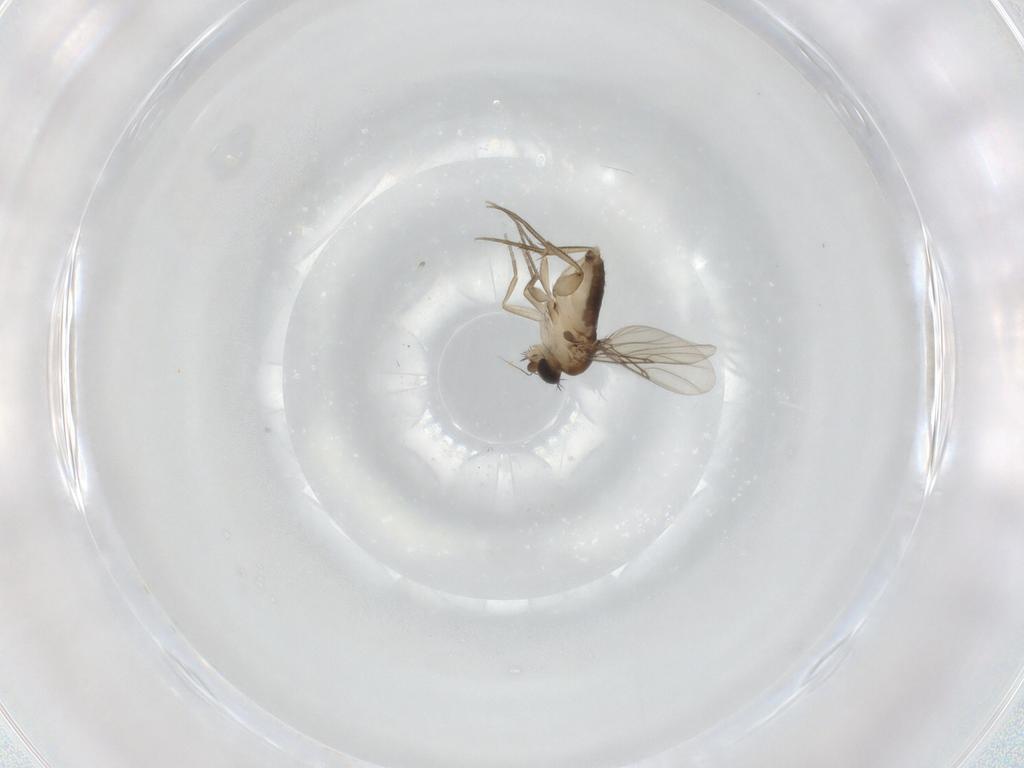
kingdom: Animalia
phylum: Arthropoda
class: Insecta
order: Diptera
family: Phoridae
